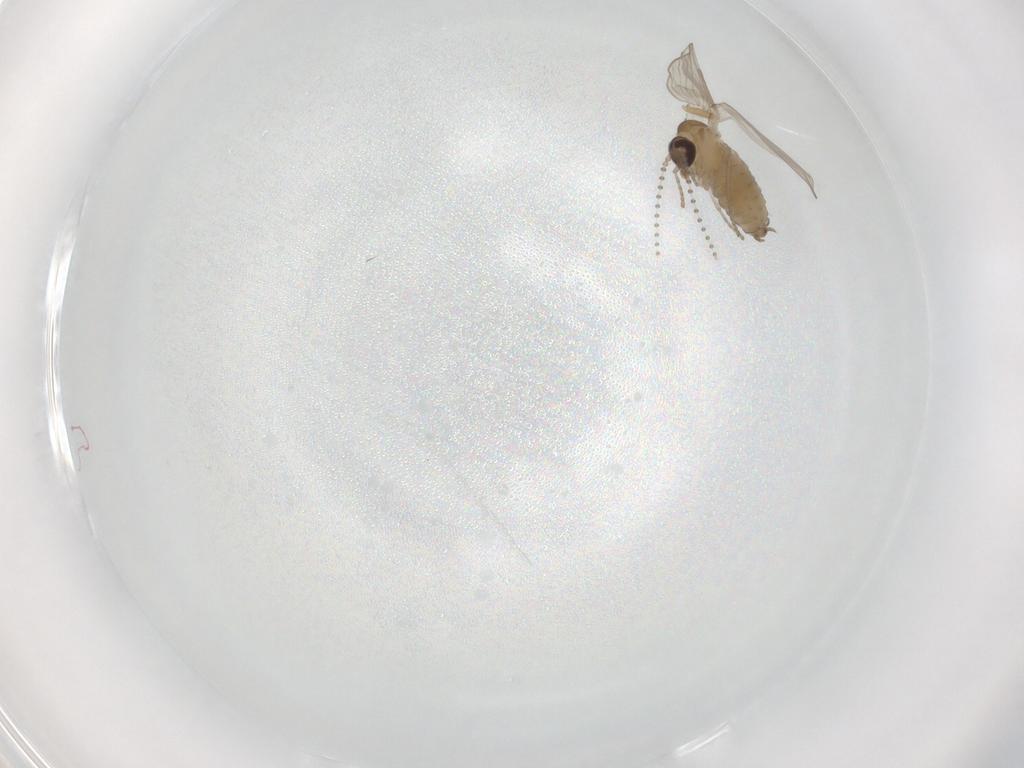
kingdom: Animalia
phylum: Arthropoda
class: Insecta
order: Diptera
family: Psychodidae
